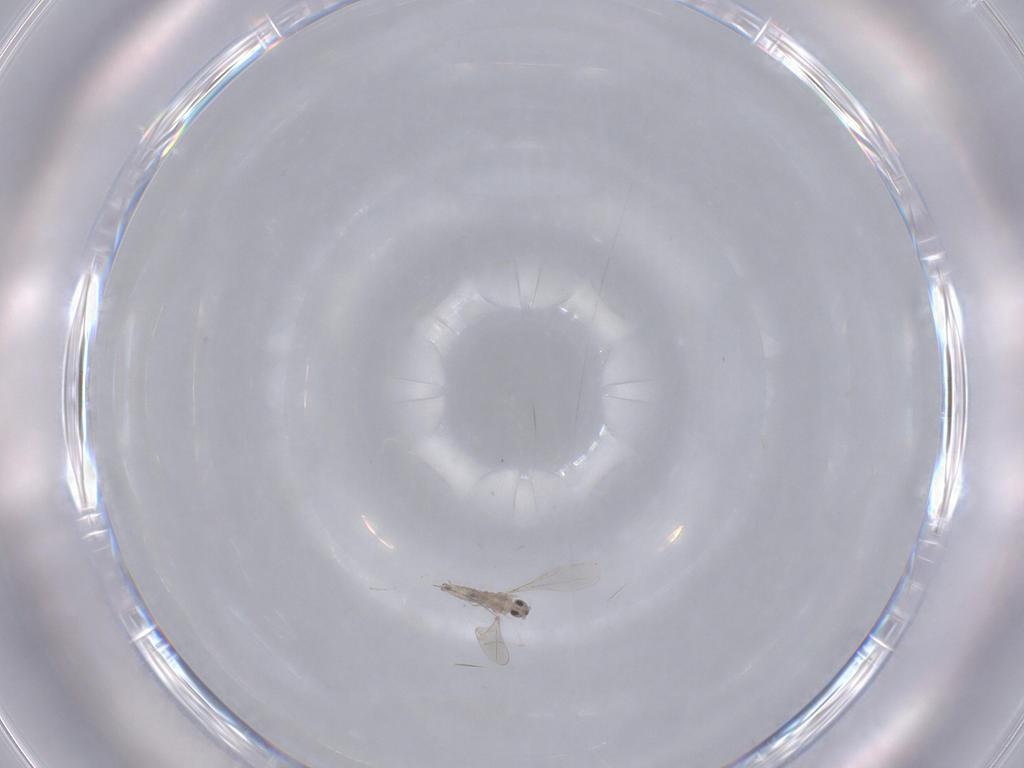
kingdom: Animalia
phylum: Arthropoda
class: Insecta
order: Diptera
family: Cecidomyiidae
